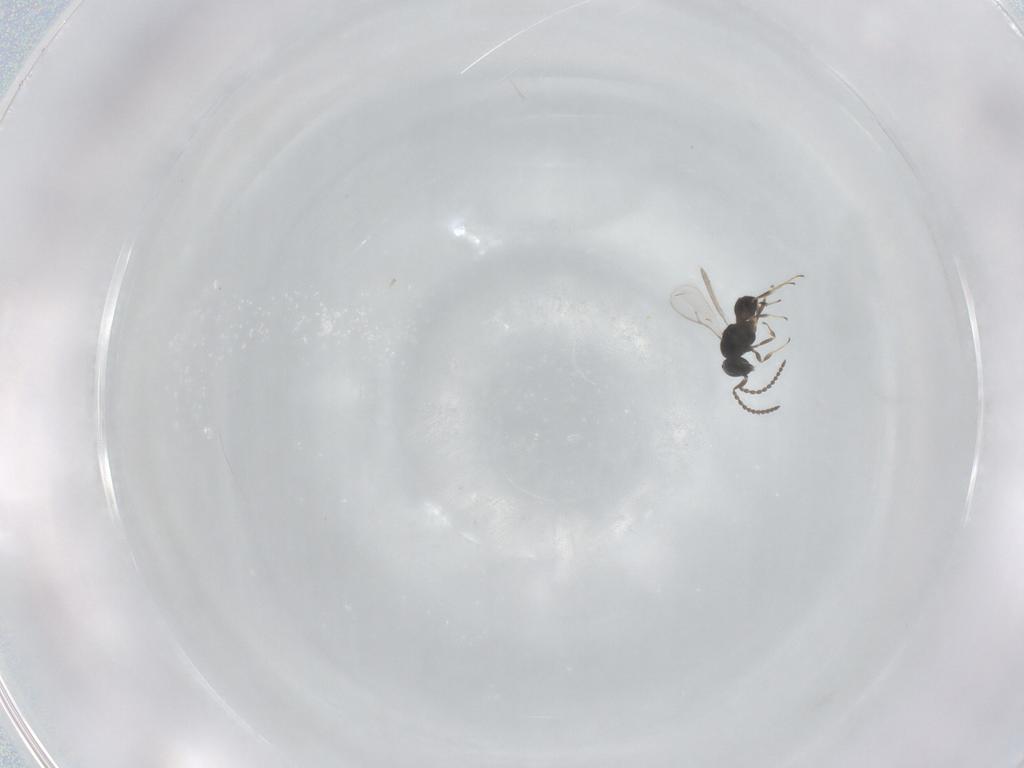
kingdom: Animalia
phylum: Arthropoda
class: Insecta
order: Hymenoptera
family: Scelionidae
